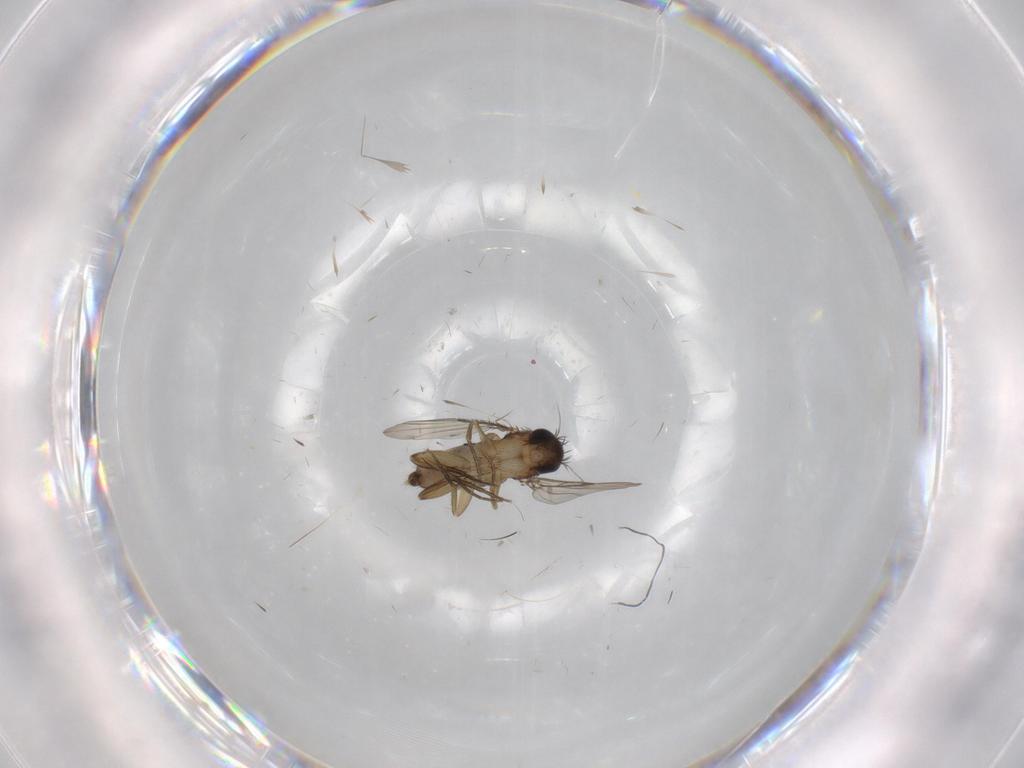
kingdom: Animalia
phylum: Arthropoda
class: Insecta
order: Diptera
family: Phoridae
